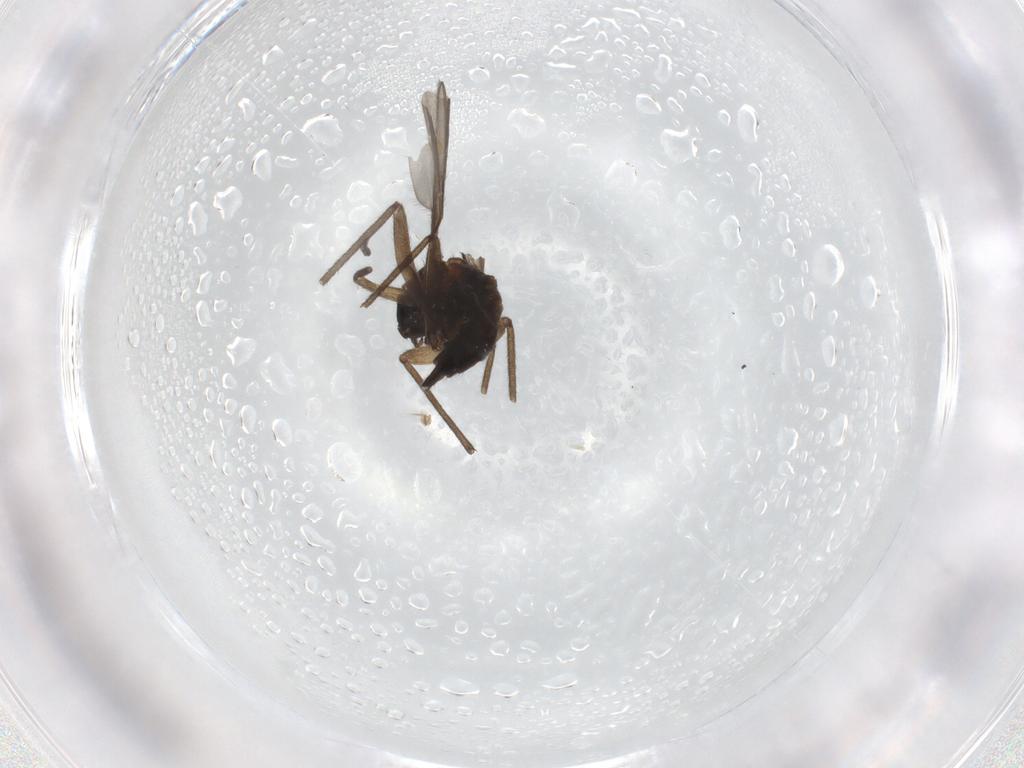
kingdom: Animalia
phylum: Arthropoda
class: Insecta
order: Diptera
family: Sciaridae
